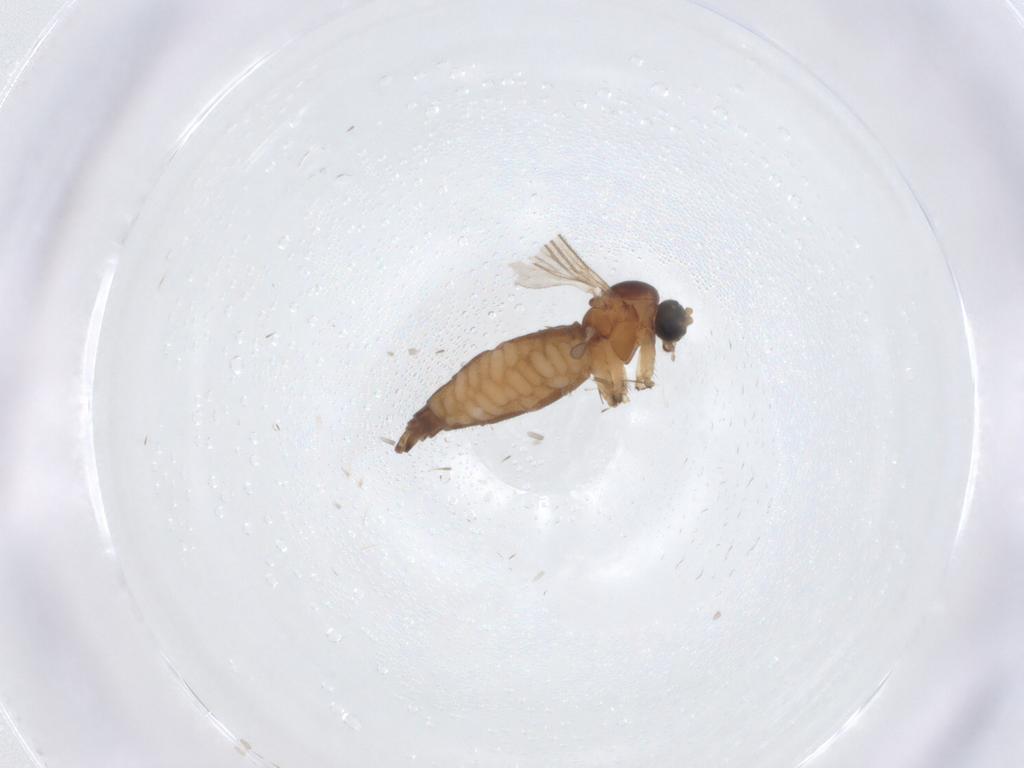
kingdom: Animalia
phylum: Arthropoda
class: Insecta
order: Diptera
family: Sciaridae
